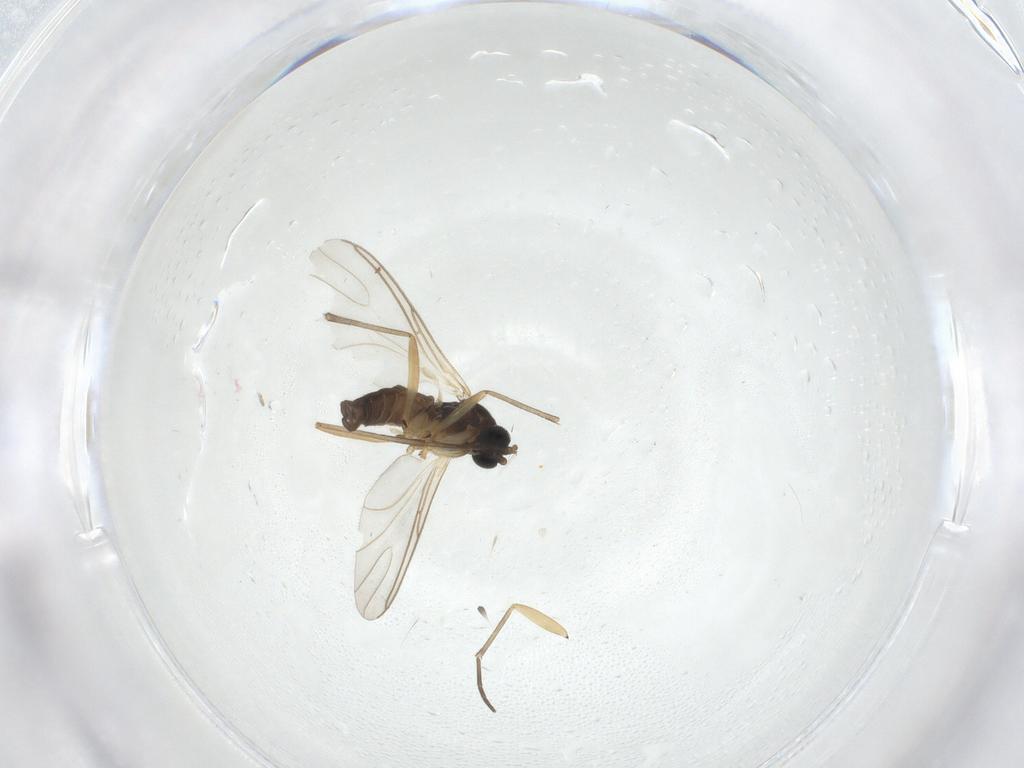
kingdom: Animalia
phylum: Arthropoda
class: Insecta
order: Diptera
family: Sciaridae
